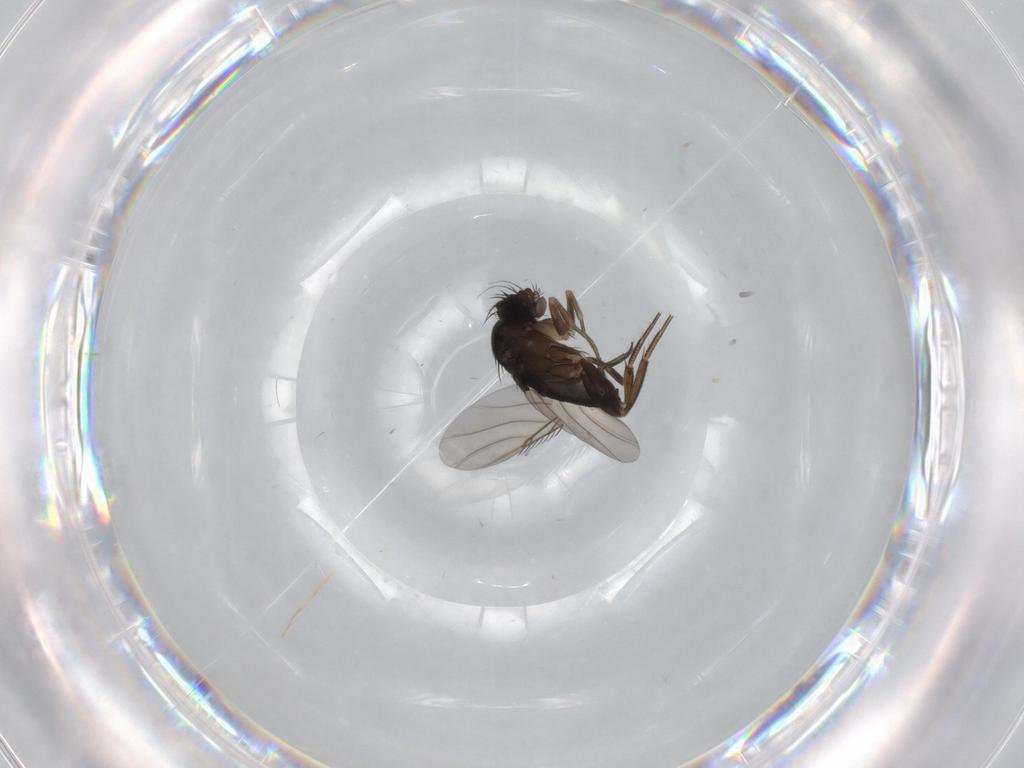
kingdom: Animalia
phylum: Arthropoda
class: Insecta
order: Diptera
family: Phoridae
